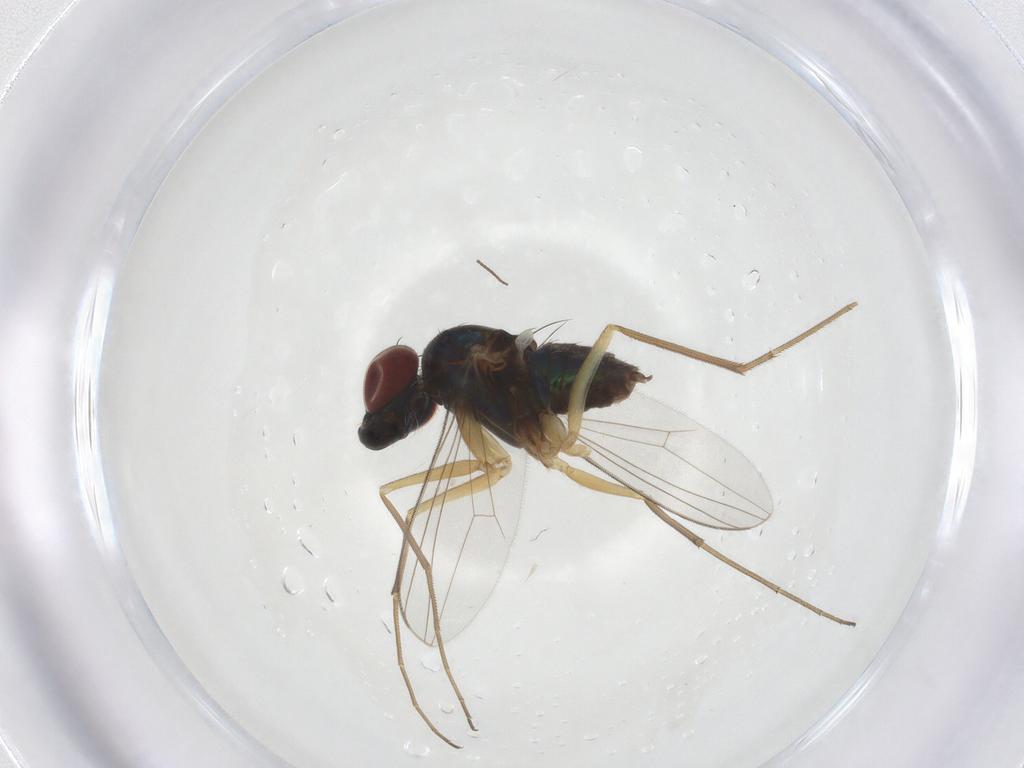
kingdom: Animalia
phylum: Arthropoda
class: Insecta
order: Diptera
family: Dolichopodidae
